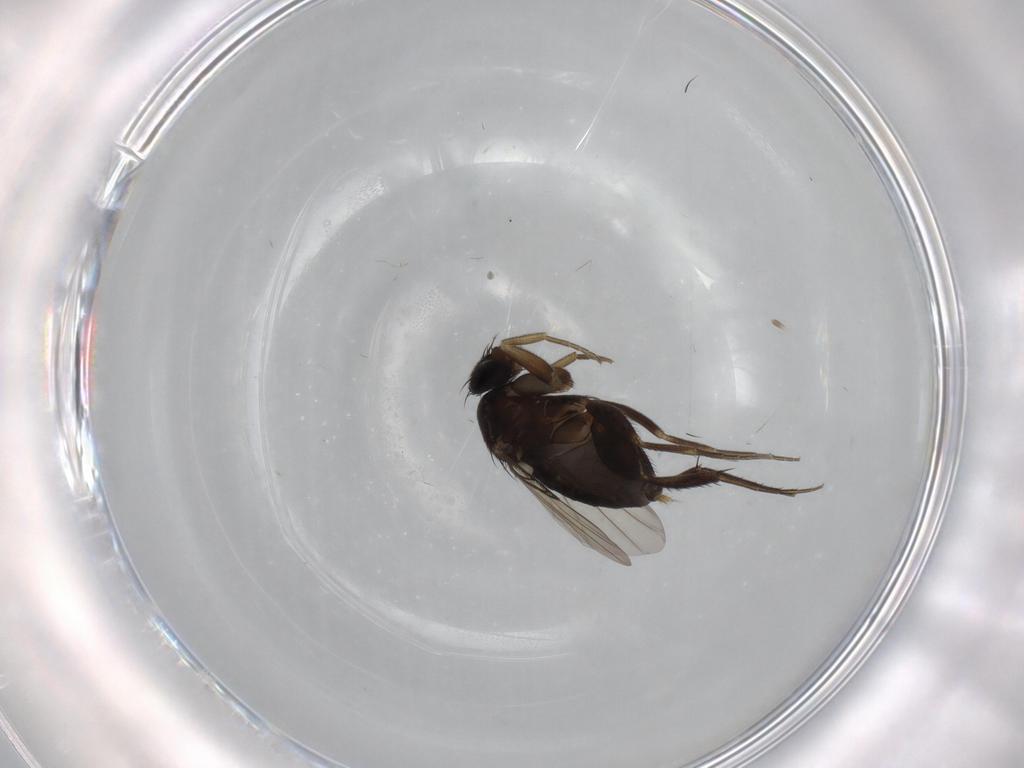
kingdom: Animalia
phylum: Arthropoda
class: Insecta
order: Diptera
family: Phoridae
